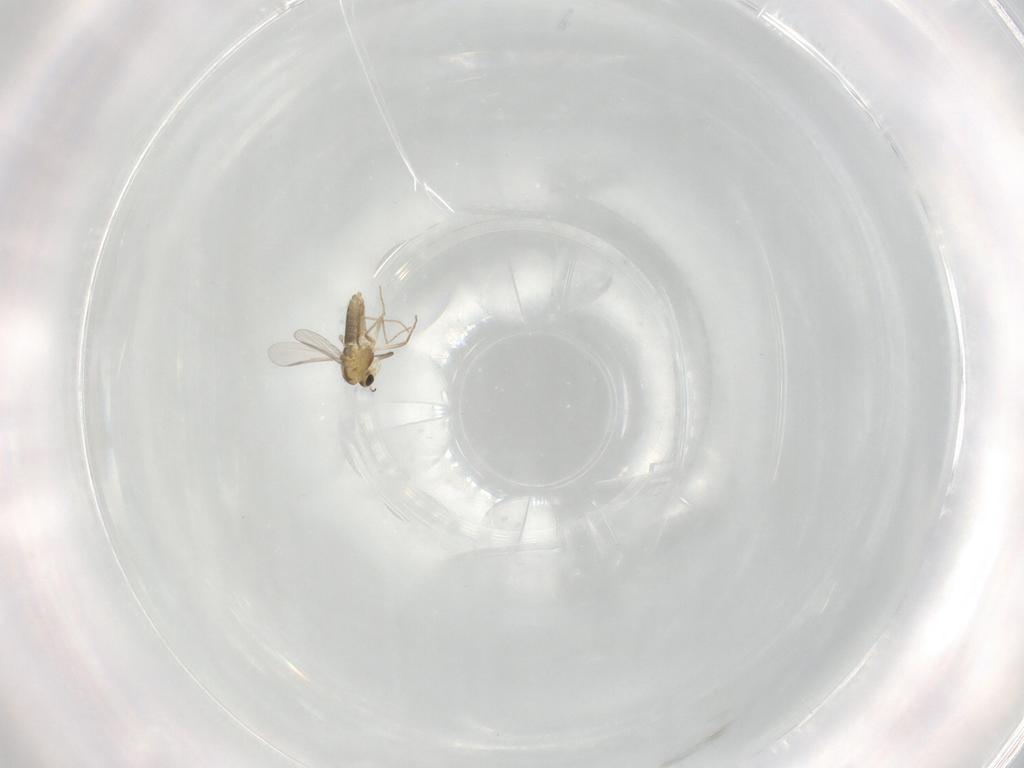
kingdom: Animalia
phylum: Arthropoda
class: Insecta
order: Diptera
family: Chironomidae
